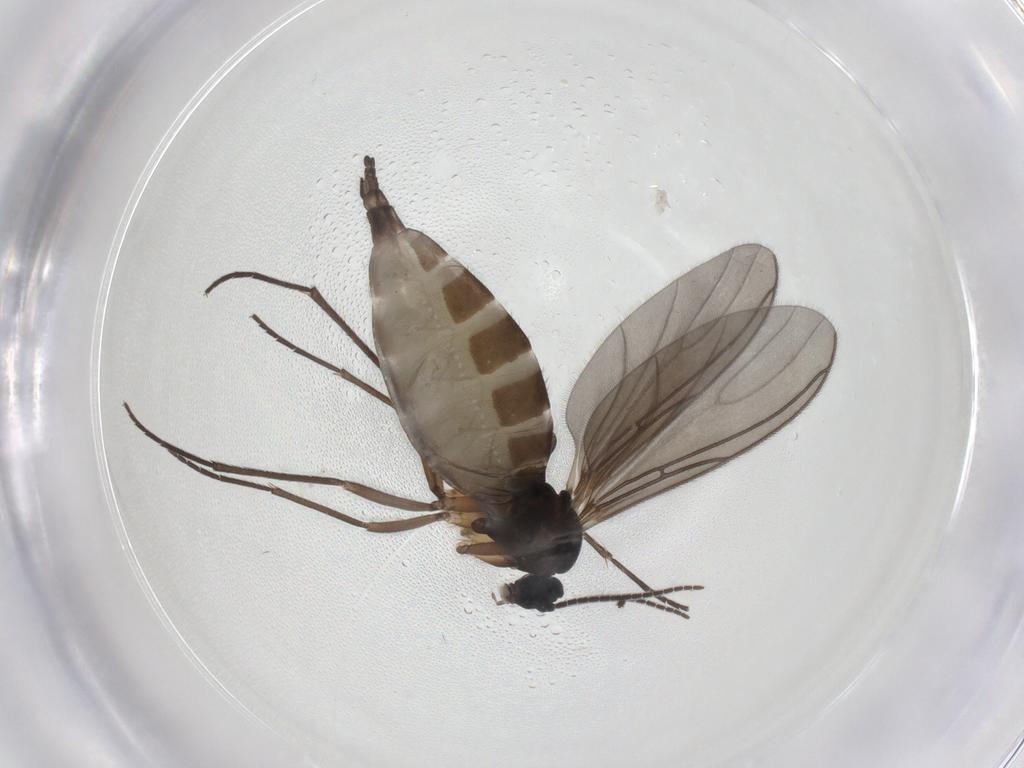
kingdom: Animalia
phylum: Arthropoda
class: Insecta
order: Diptera
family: Sciaridae
